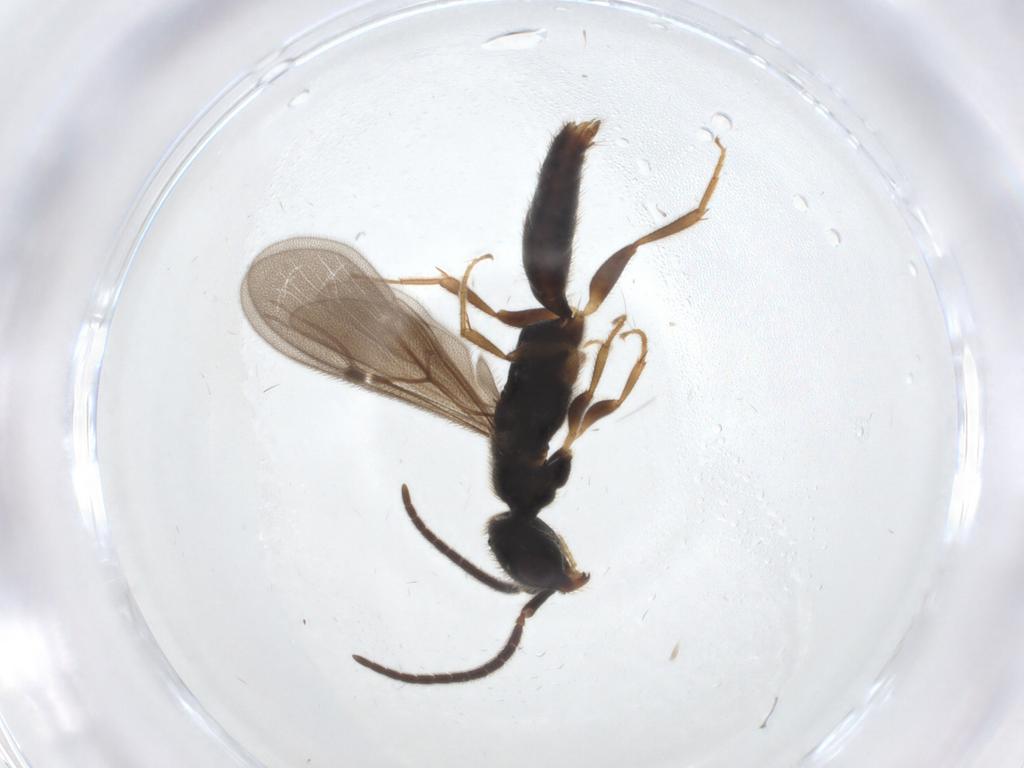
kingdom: Animalia
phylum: Arthropoda
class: Insecta
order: Hymenoptera
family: Bethylidae
